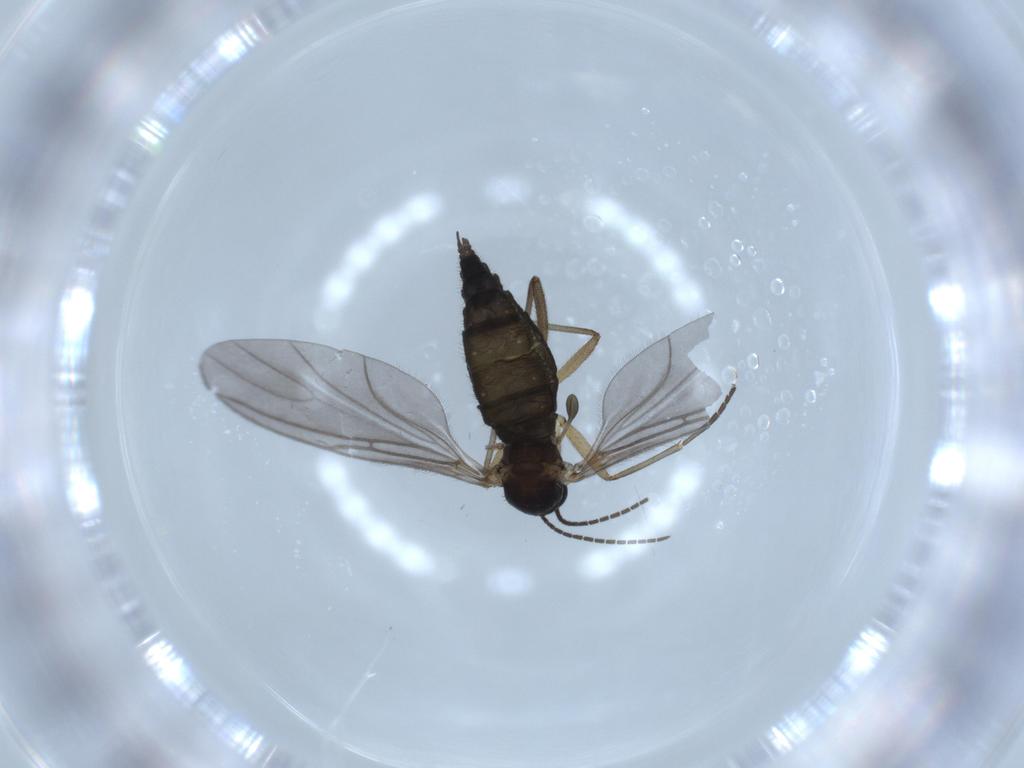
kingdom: Animalia
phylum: Arthropoda
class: Insecta
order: Diptera
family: Sciaridae
